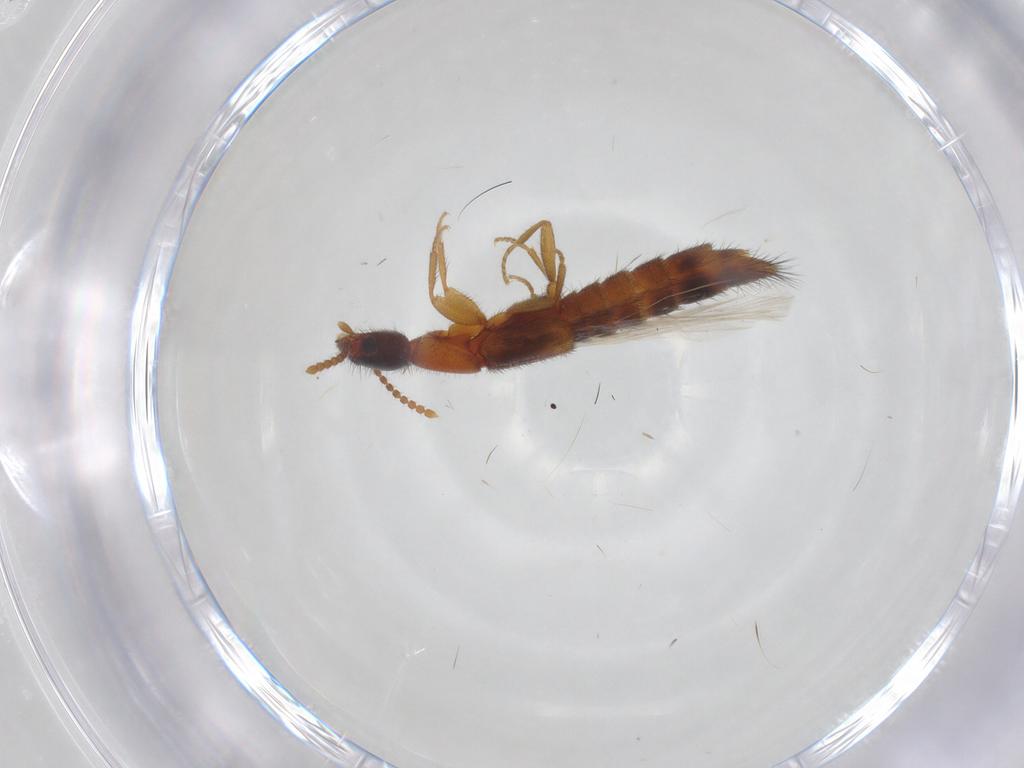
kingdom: Animalia
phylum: Arthropoda
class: Insecta
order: Coleoptera
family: Staphylinidae
